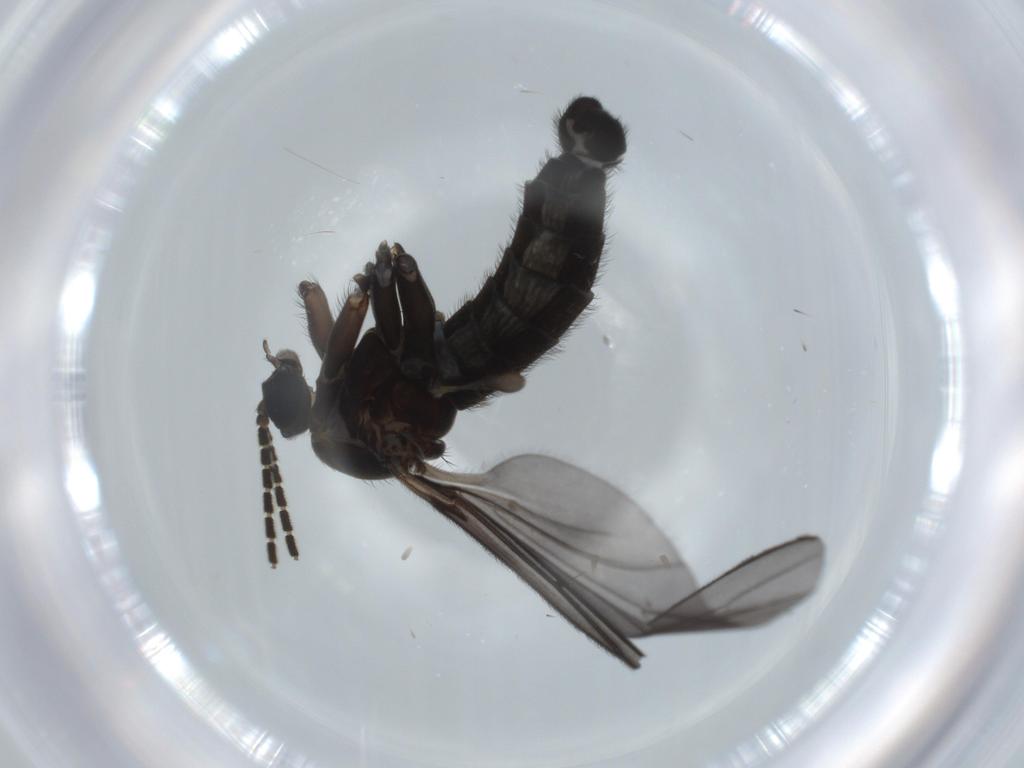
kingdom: Animalia
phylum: Arthropoda
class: Insecta
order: Diptera
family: Sciaridae
